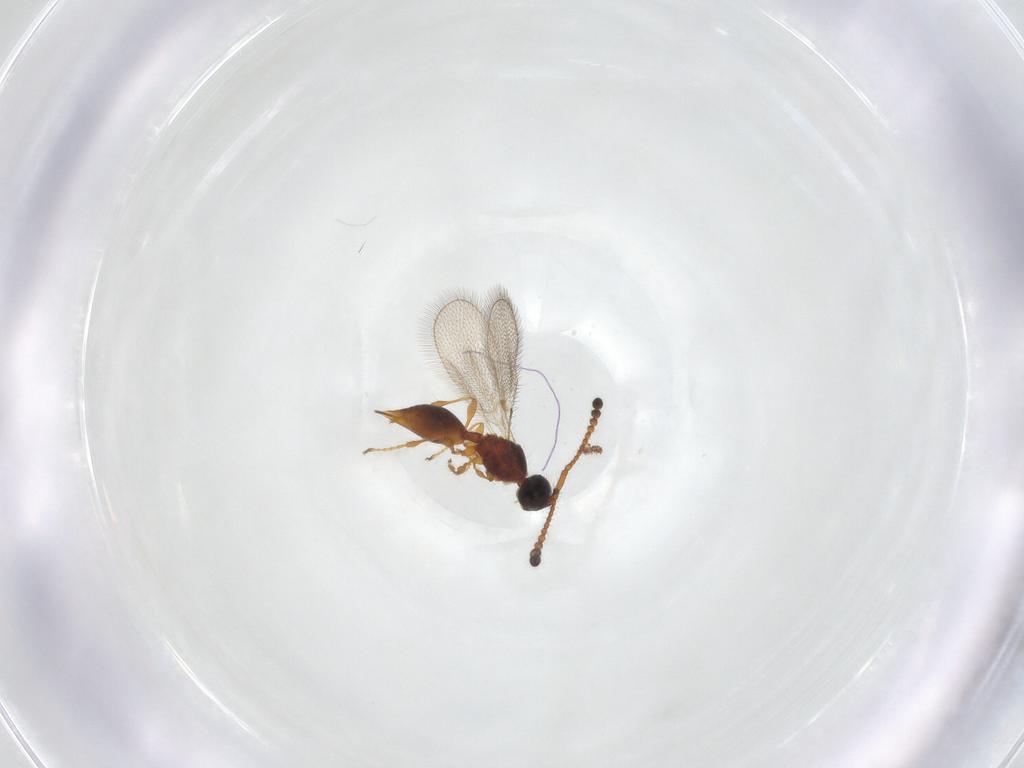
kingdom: Animalia
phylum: Arthropoda
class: Insecta
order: Hymenoptera
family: Diapriidae
